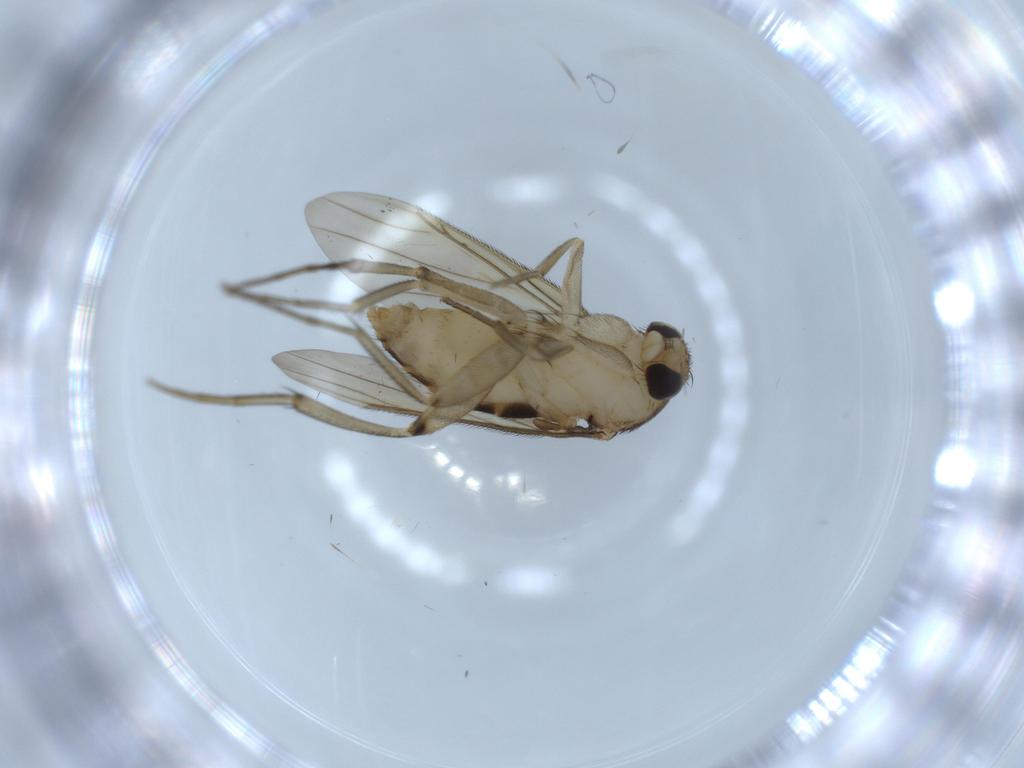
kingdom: Animalia
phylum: Arthropoda
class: Insecta
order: Diptera
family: Phoridae
